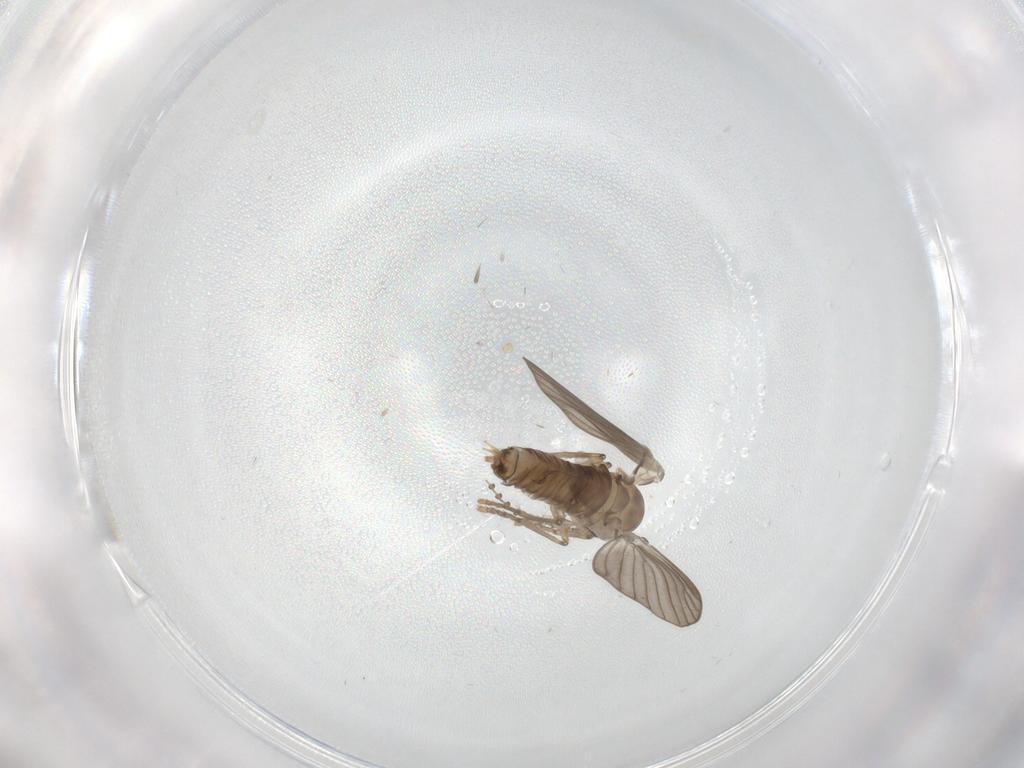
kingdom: Animalia
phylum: Arthropoda
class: Insecta
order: Diptera
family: Psychodidae
